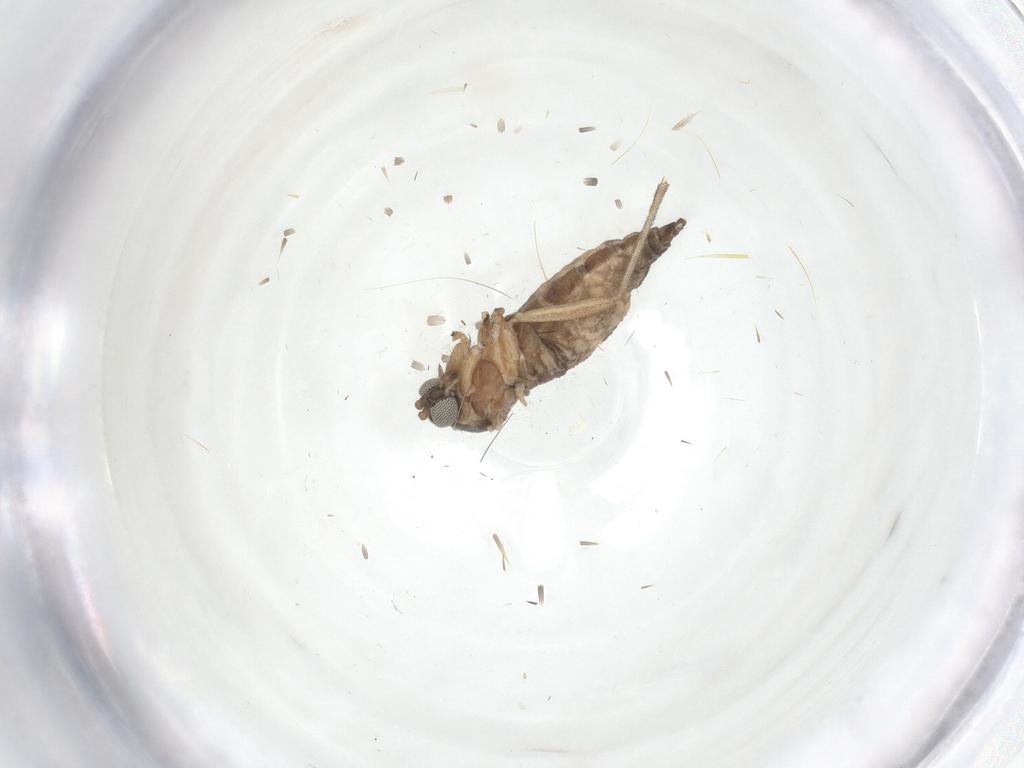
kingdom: Animalia
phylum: Arthropoda
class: Insecta
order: Diptera
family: Sciaridae
